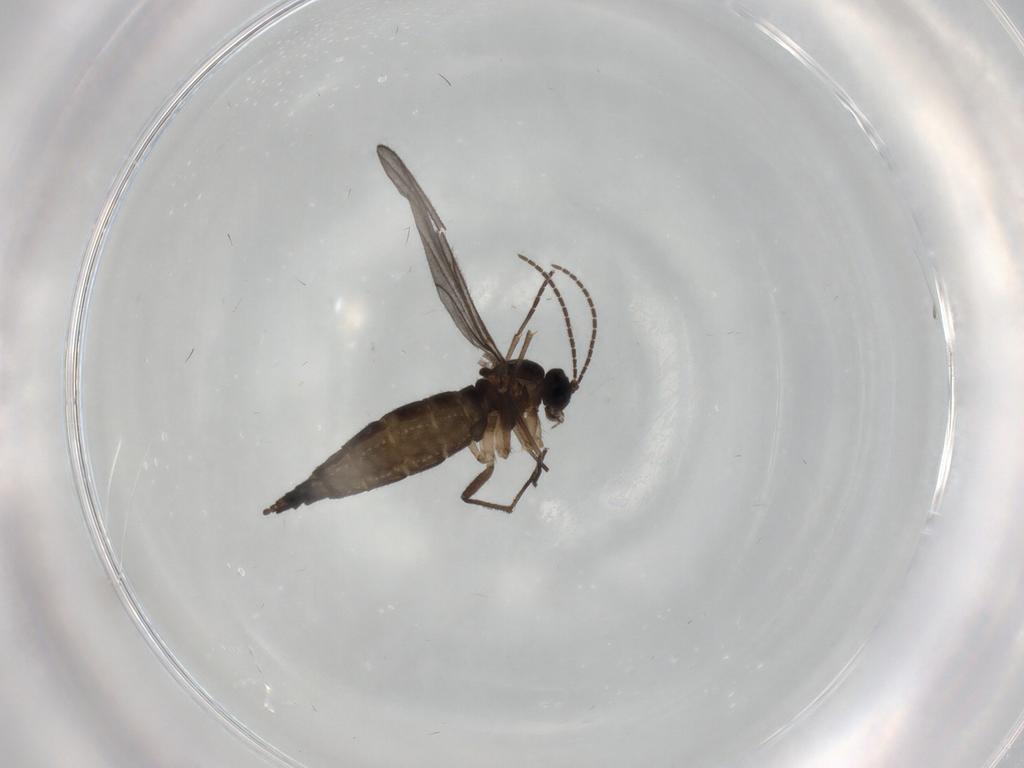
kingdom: Animalia
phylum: Arthropoda
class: Insecta
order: Diptera
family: Sciaridae
